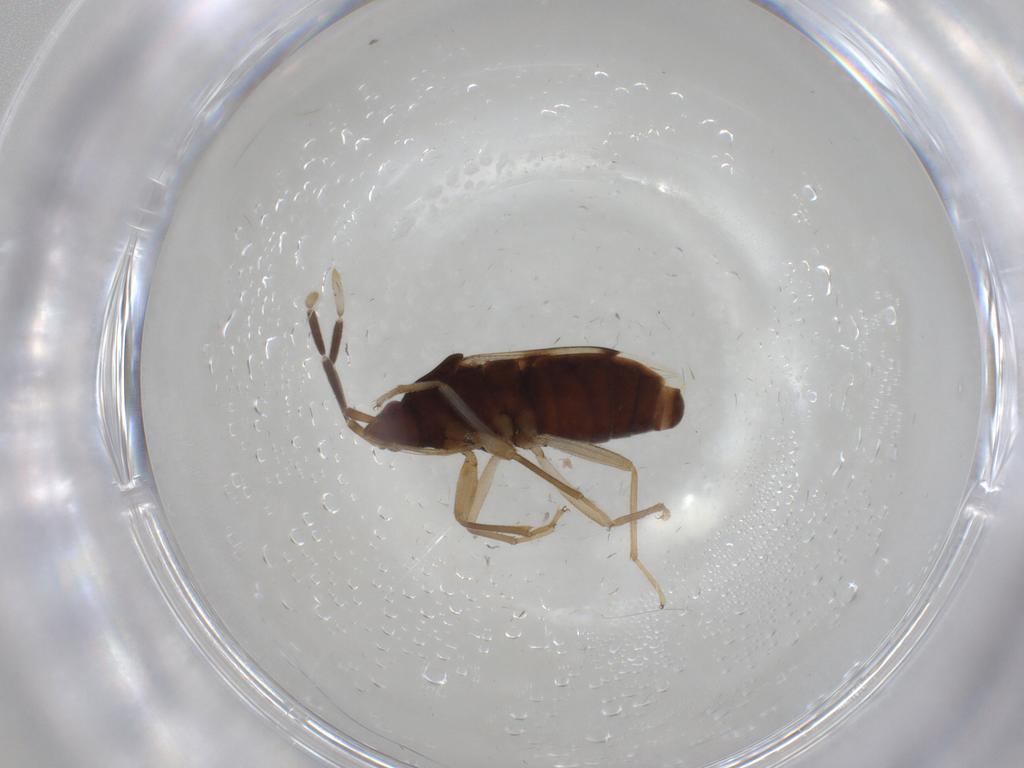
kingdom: Animalia
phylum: Arthropoda
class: Insecta
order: Hemiptera
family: Rhyparochromidae
